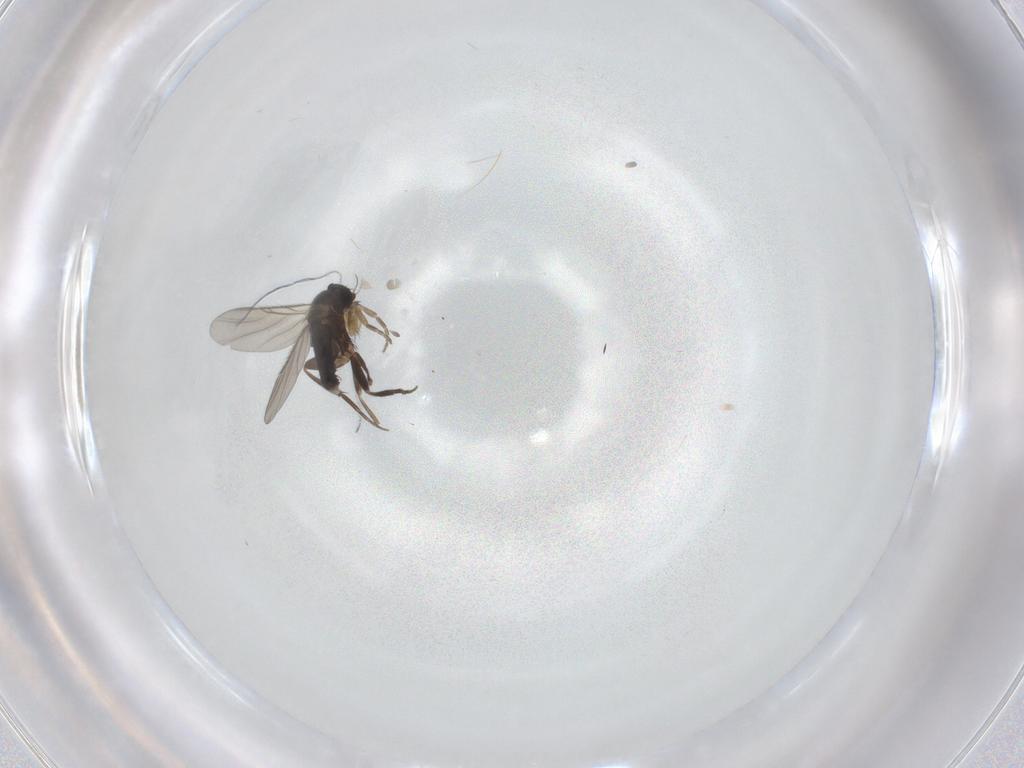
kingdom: Animalia
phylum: Arthropoda
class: Insecta
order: Diptera
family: Phoridae
